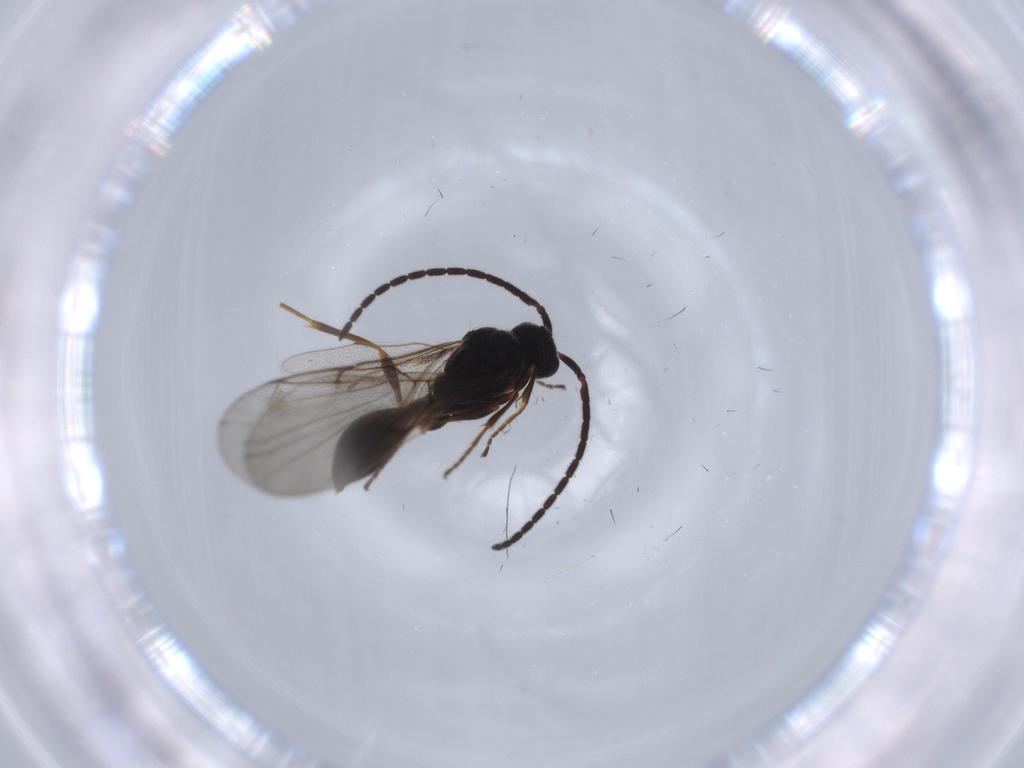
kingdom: Animalia
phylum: Arthropoda
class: Insecta
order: Hymenoptera
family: Diapriidae
